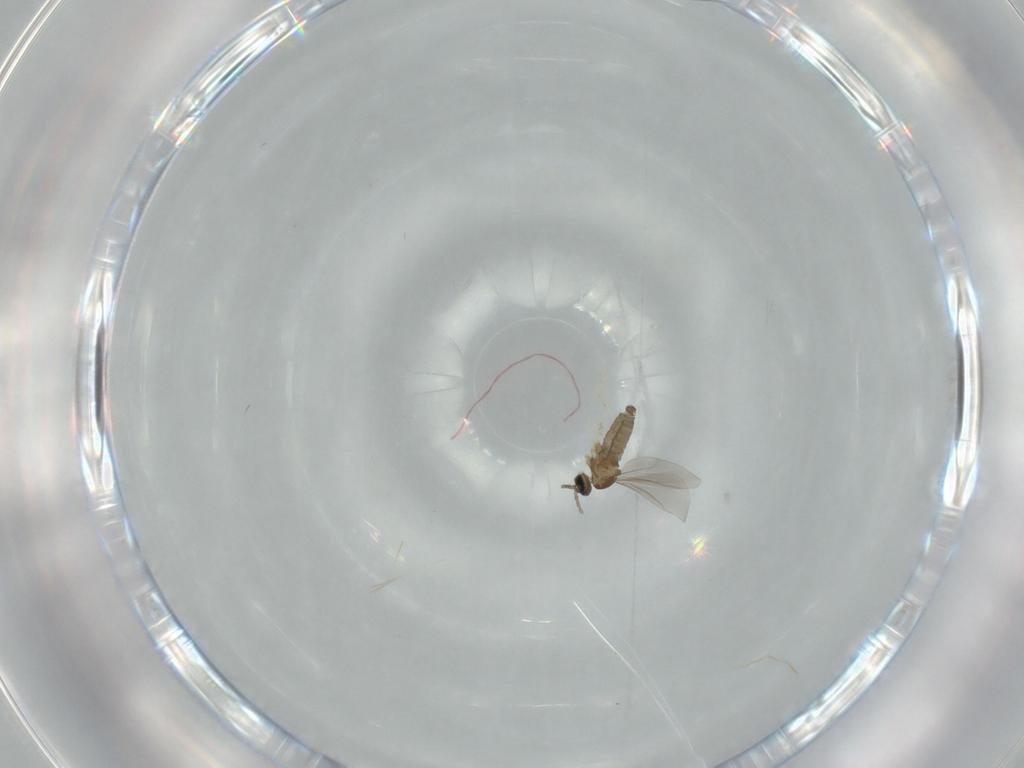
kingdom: Animalia
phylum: Arthropoda
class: Insecta
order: Diptera
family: Cecidomyiidae
